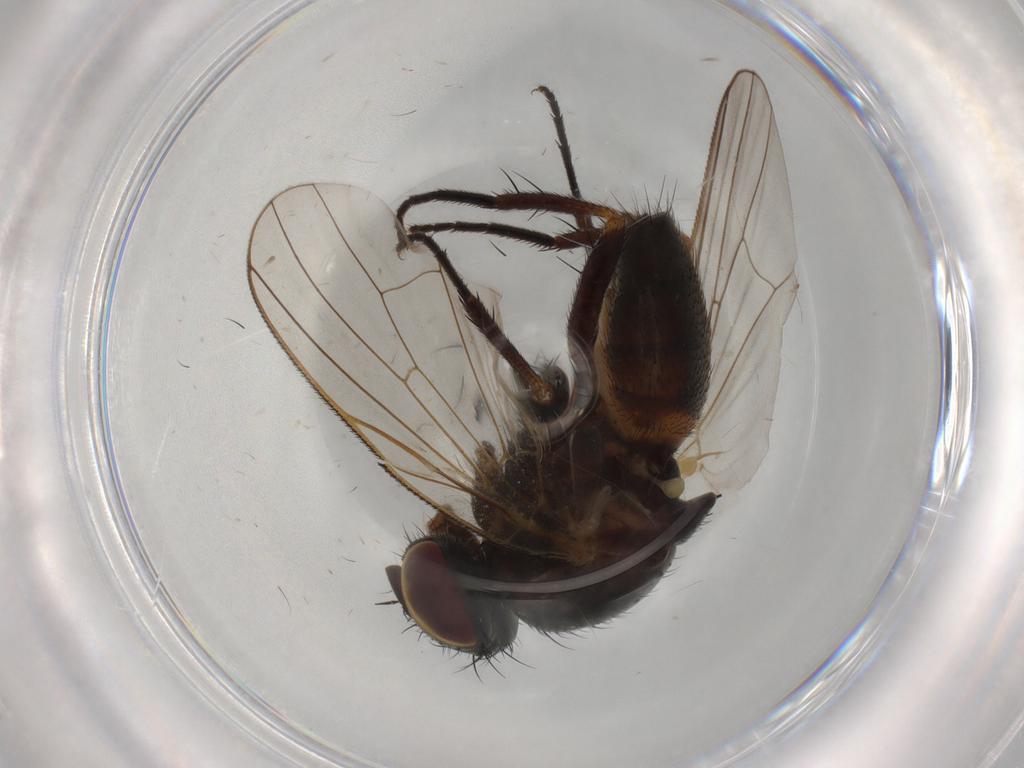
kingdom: Animalia
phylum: Arthropoda
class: Insecta
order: Diptera
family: Fannia
